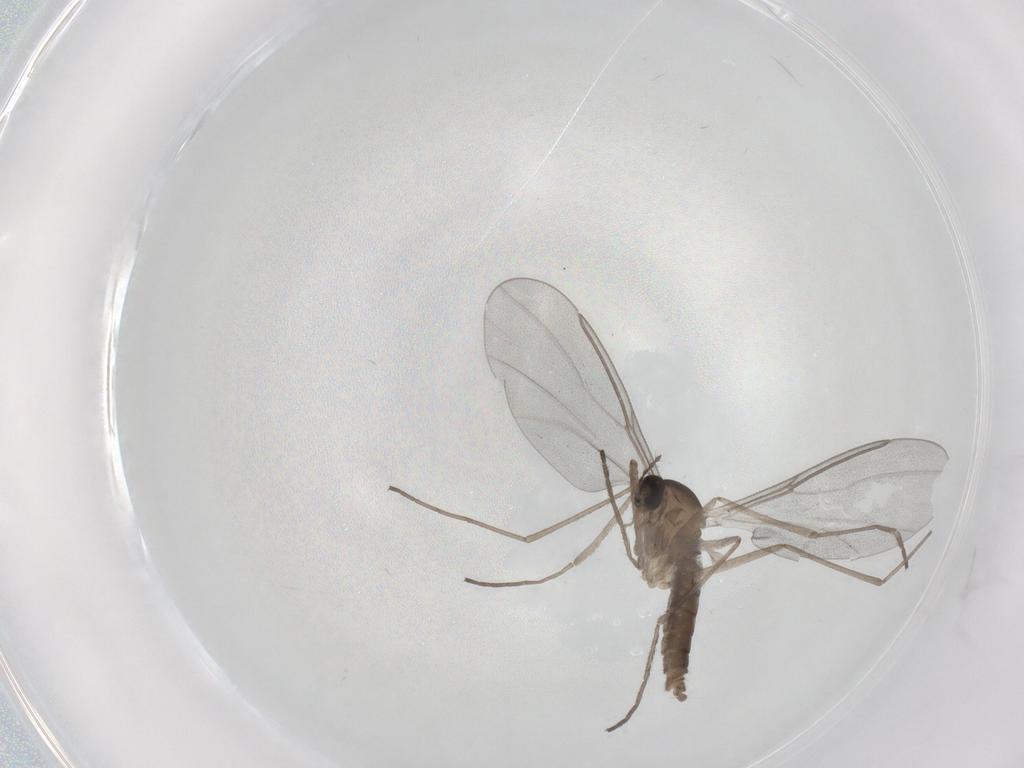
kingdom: Animalia
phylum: Arthropoda
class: Insecta
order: Diptera
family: Cecidomyiidae
